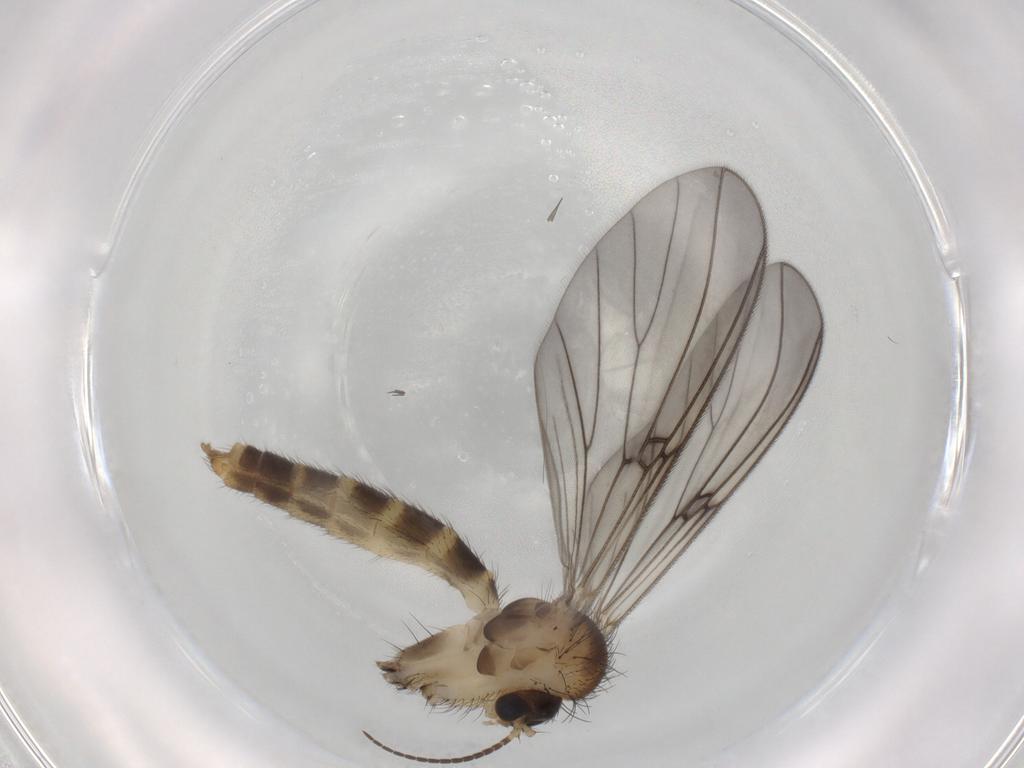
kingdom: Animalia
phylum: Arthropoda
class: Insecta
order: Diptera
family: Mycetophilidae
